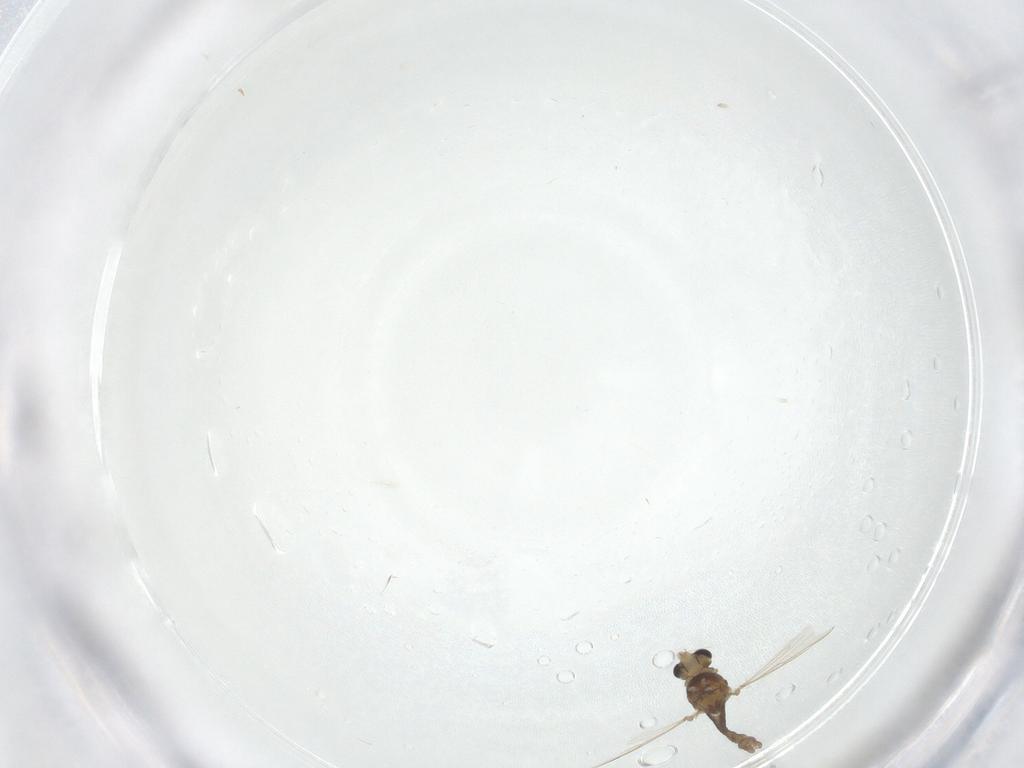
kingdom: Animalia
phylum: Arthropoda
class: Insecta
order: Diptera
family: Chironomidae
